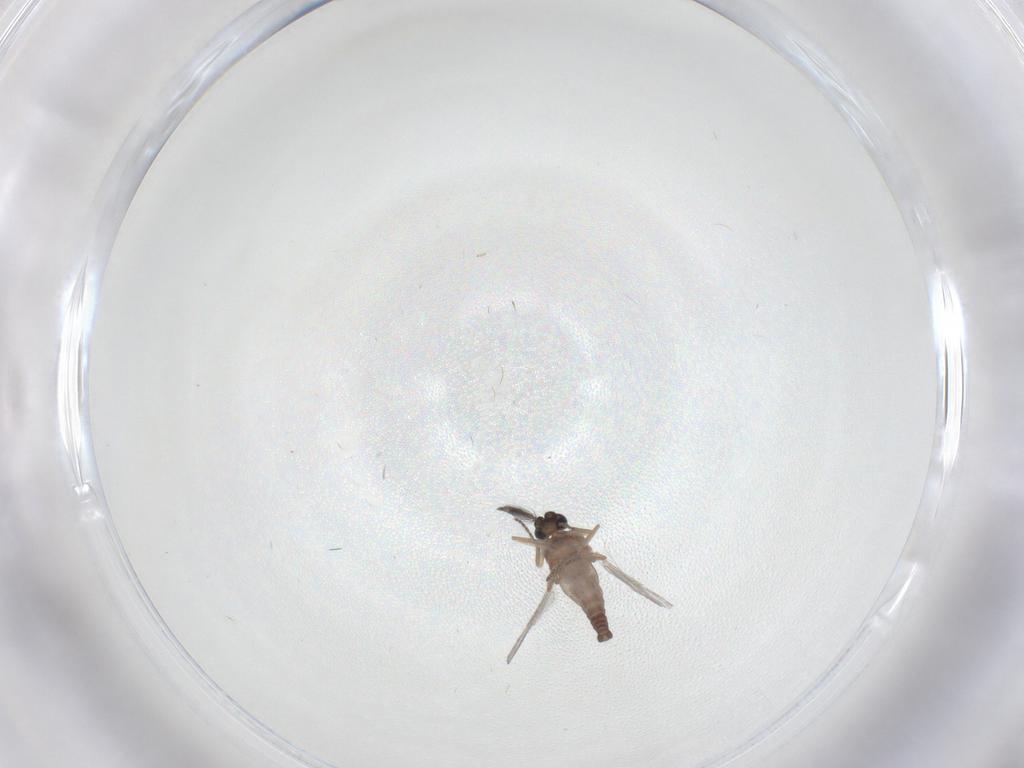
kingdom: Animalia
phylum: Arthropoda
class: Insecta
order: Diptera
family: Ceratopogonidae
